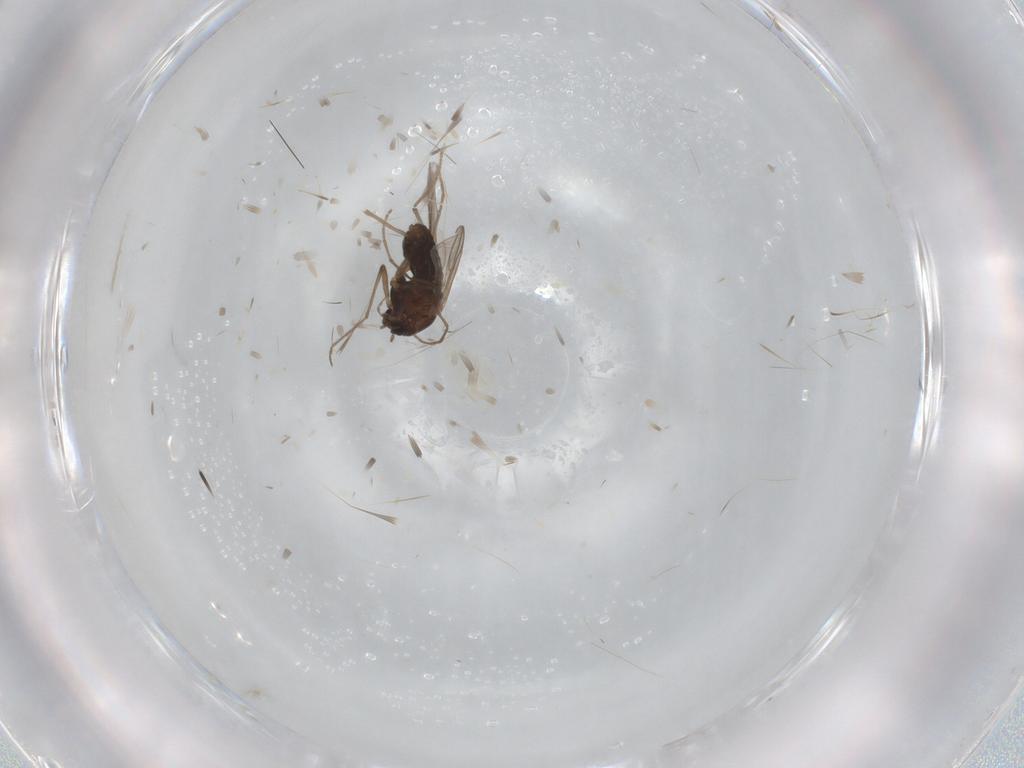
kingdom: Animalia
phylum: Arthropoda
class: Insecta
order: Diptera
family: Chironomidae
